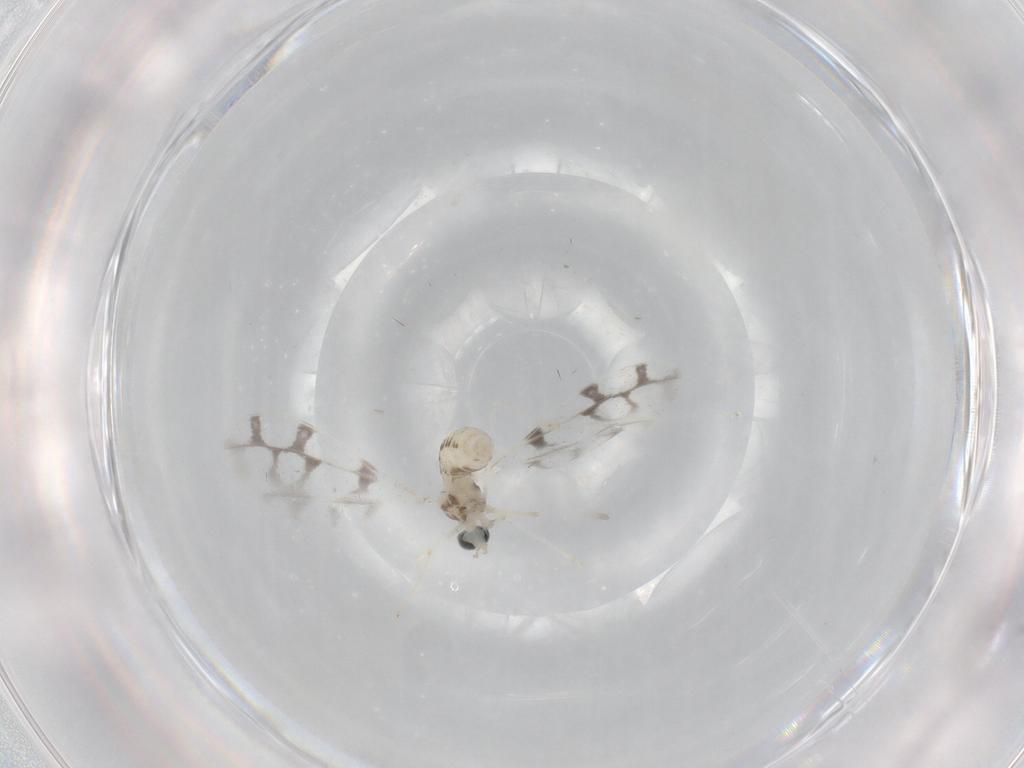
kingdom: Animalia
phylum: Arthropoda
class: Insecta
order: Diptera
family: Cecidomyiidae
